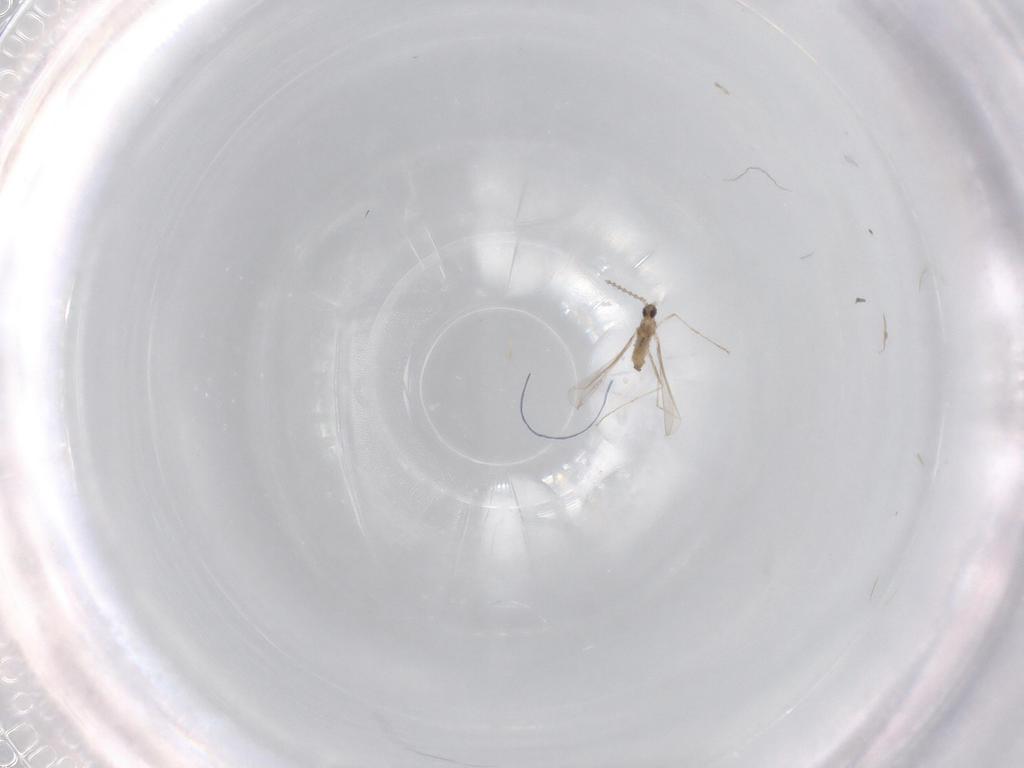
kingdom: Animalia
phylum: Arthropoda
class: Insecta
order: Diptera
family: Cecidomyiidae
